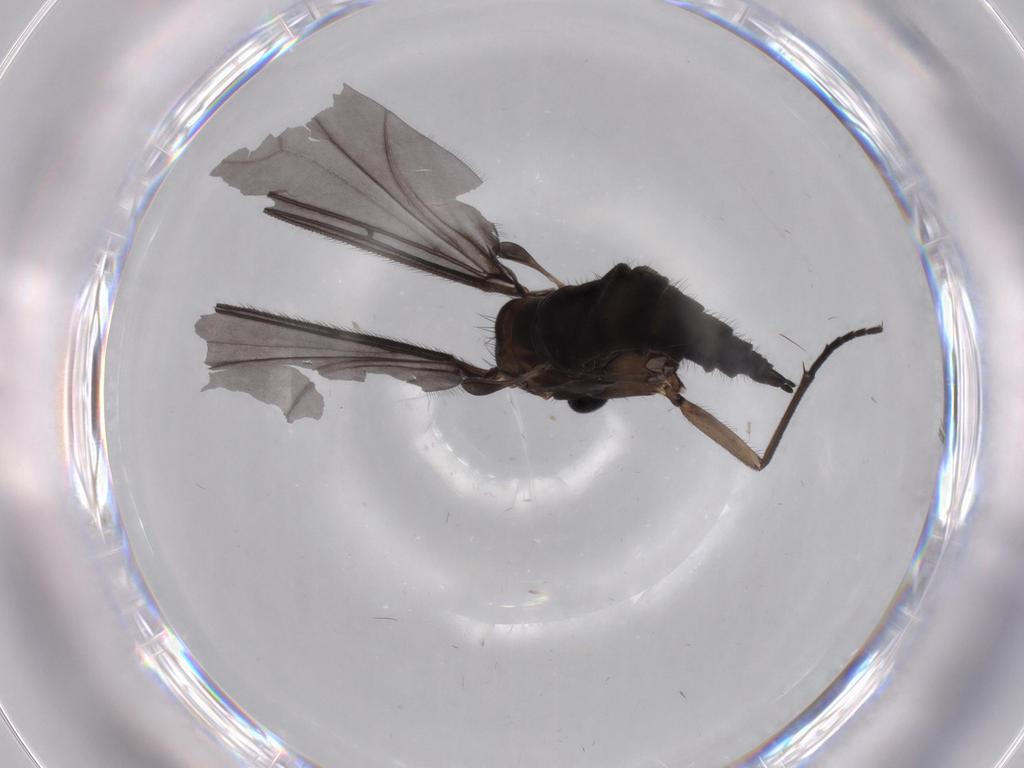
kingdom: Animalia
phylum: Arthropoda
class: Insecta
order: Diptera
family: Sciaridae
